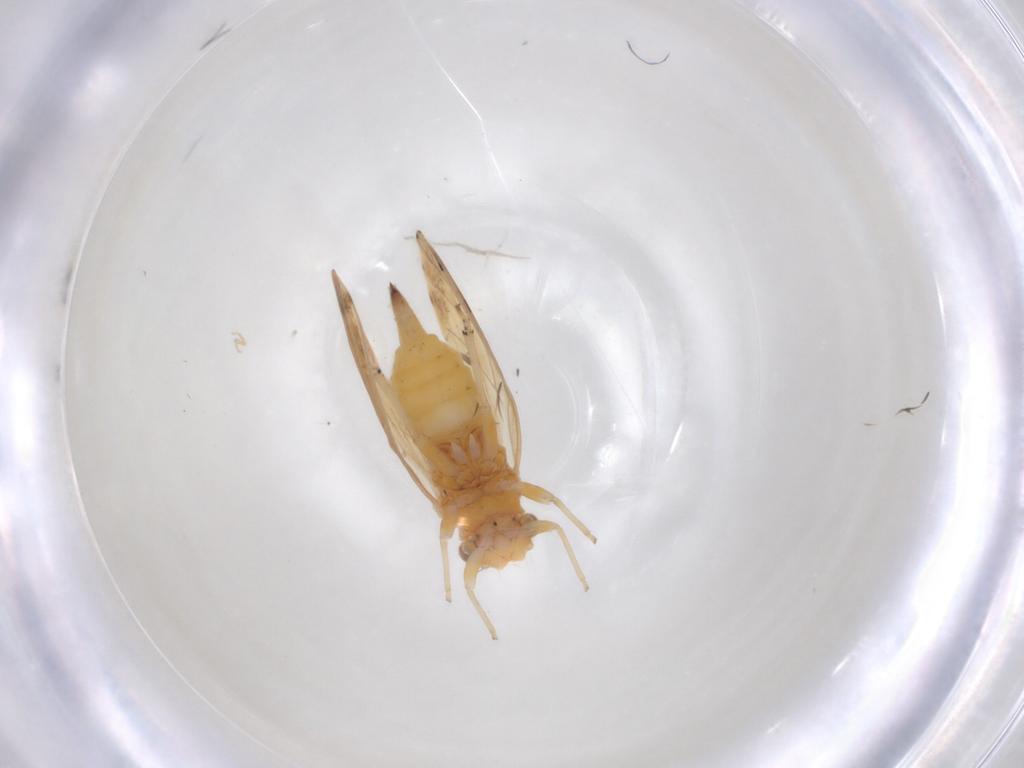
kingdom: Animalia
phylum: Arthropoda
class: Insecta
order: Hemiptera
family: Psyllidae
